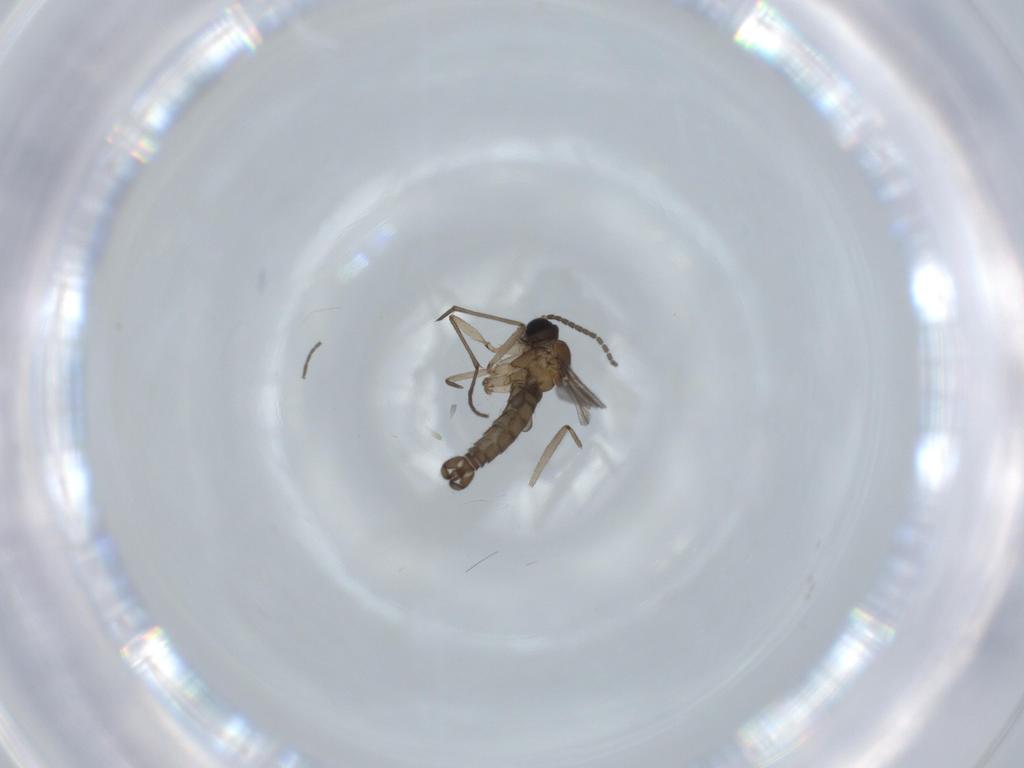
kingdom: Animalia
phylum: Arthropoda
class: Insecta
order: Diptera
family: Sciaridae
